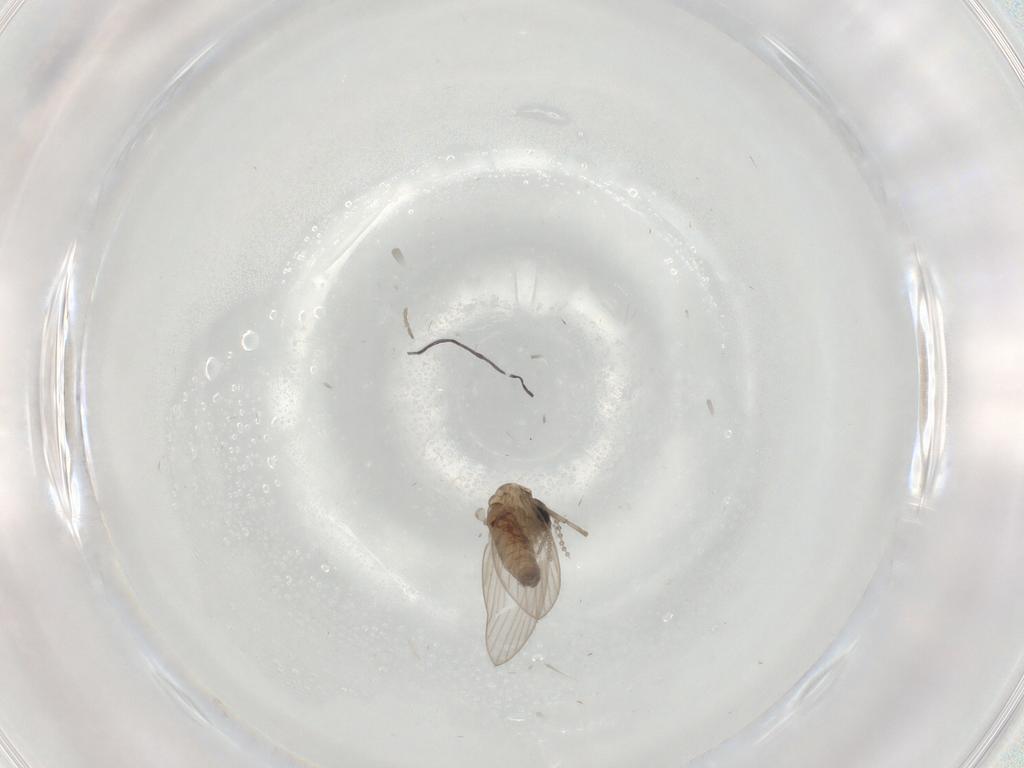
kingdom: Animalia
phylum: Arthropoda
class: Insecta
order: Diptera
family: Psychodidae
